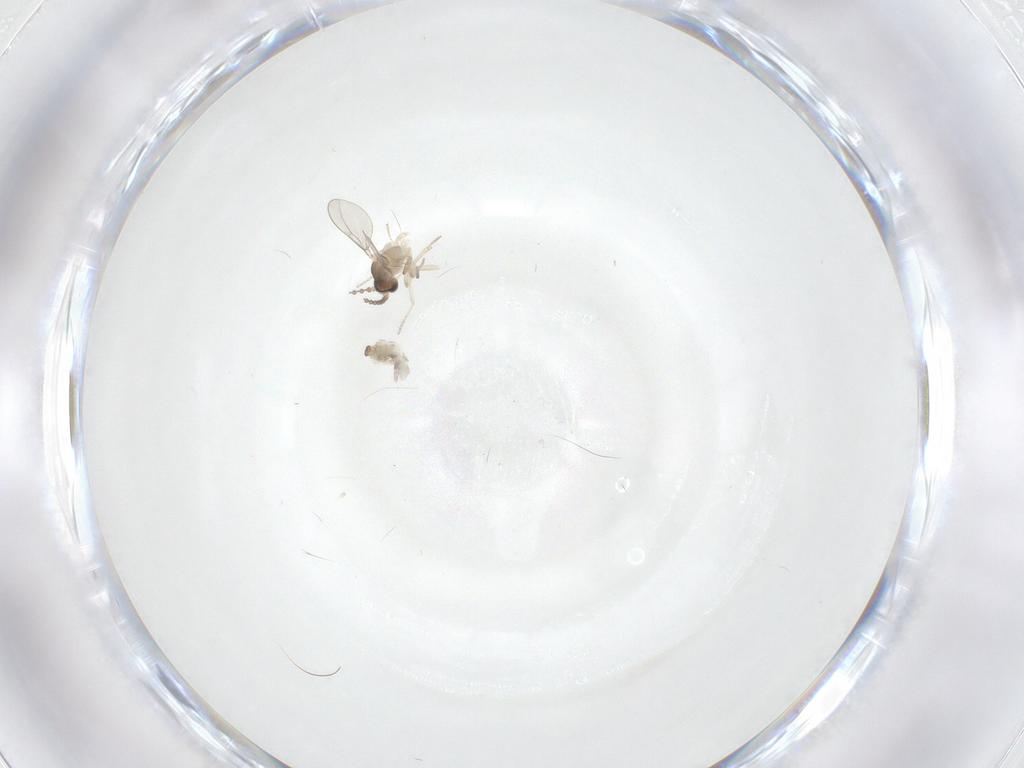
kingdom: Animalia
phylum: Arthropoda
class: Insecta
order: Diptera
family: Cecidomyiidae
